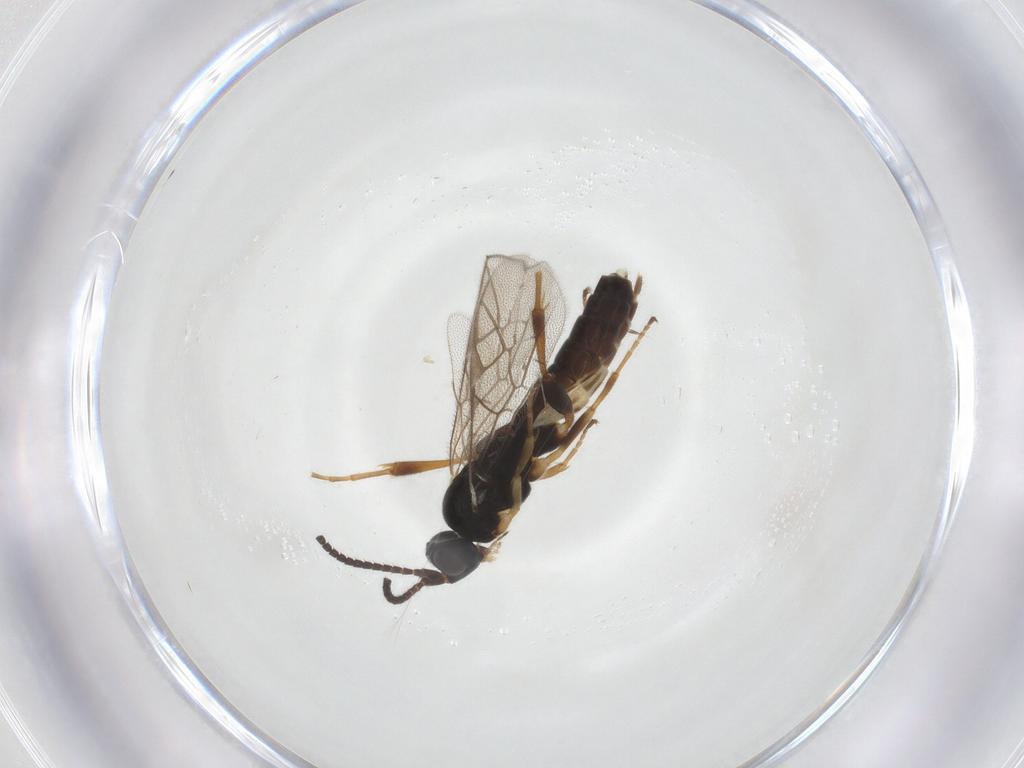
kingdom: Animalia
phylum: Arthropoda
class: Insecta
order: Hymenoptera
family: Ichneumonidae
